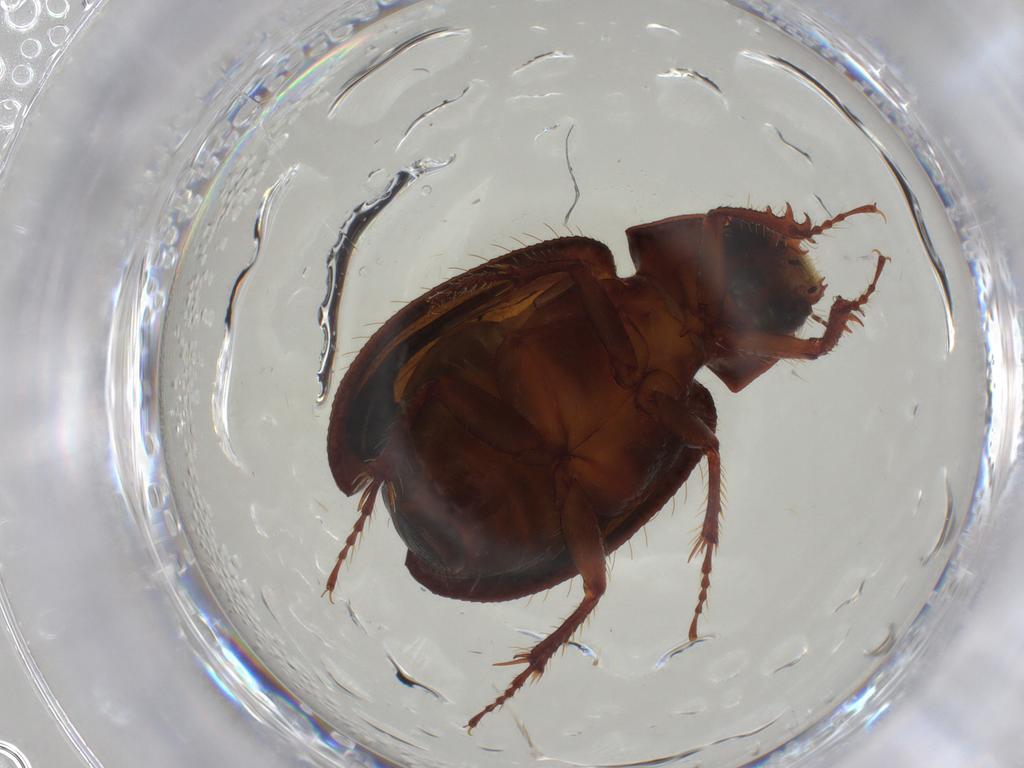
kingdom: Animalia
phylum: Arthropoda
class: Insecta
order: Coleoptera
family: Hybosoridae
